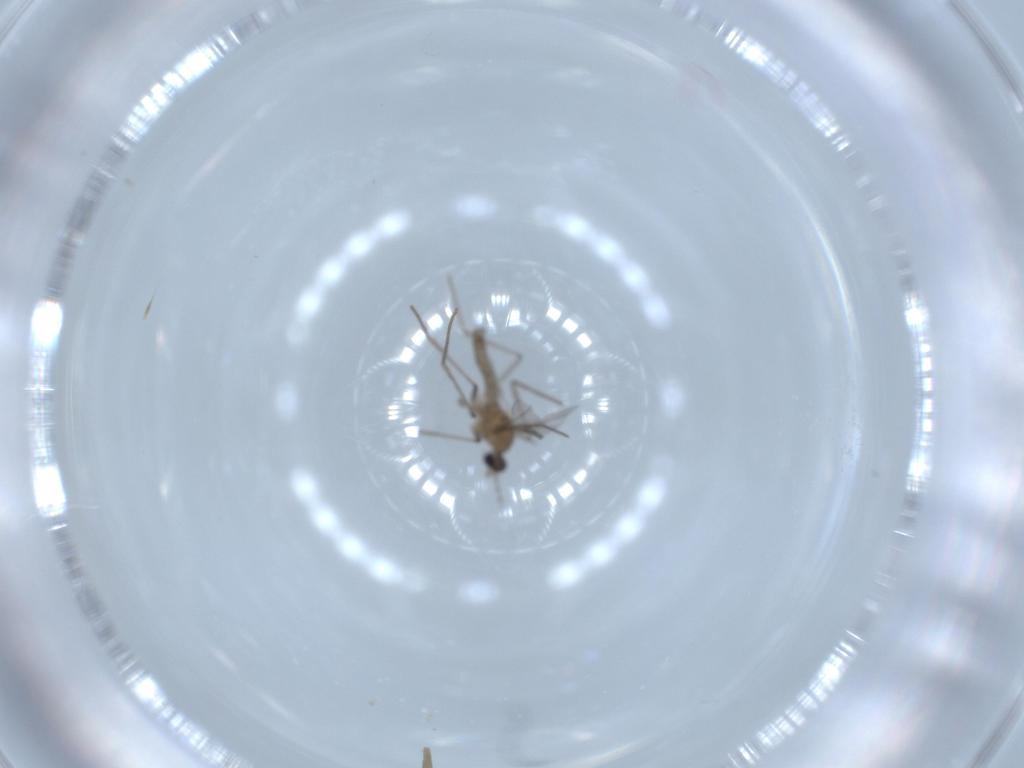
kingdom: Animalia
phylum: Arthropoda
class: Insecta
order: Diptera
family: Cecidomyiidae
